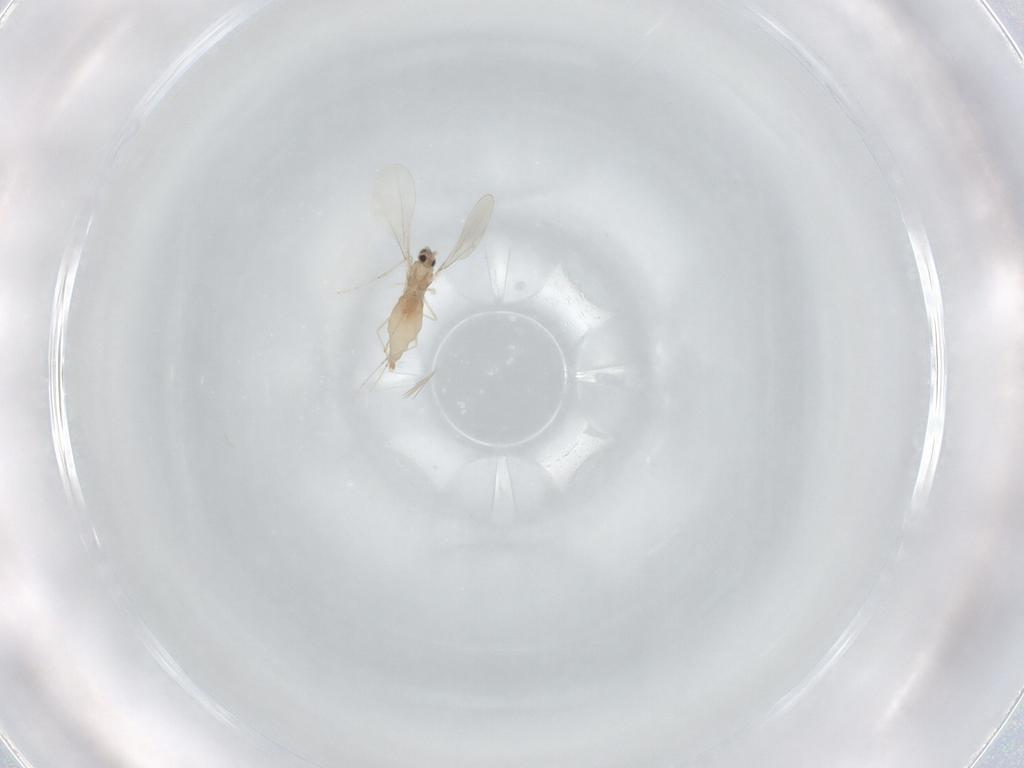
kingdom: Animalia
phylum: Arthropoda
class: Insecta
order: Diptera
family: Cecidomyiidae
